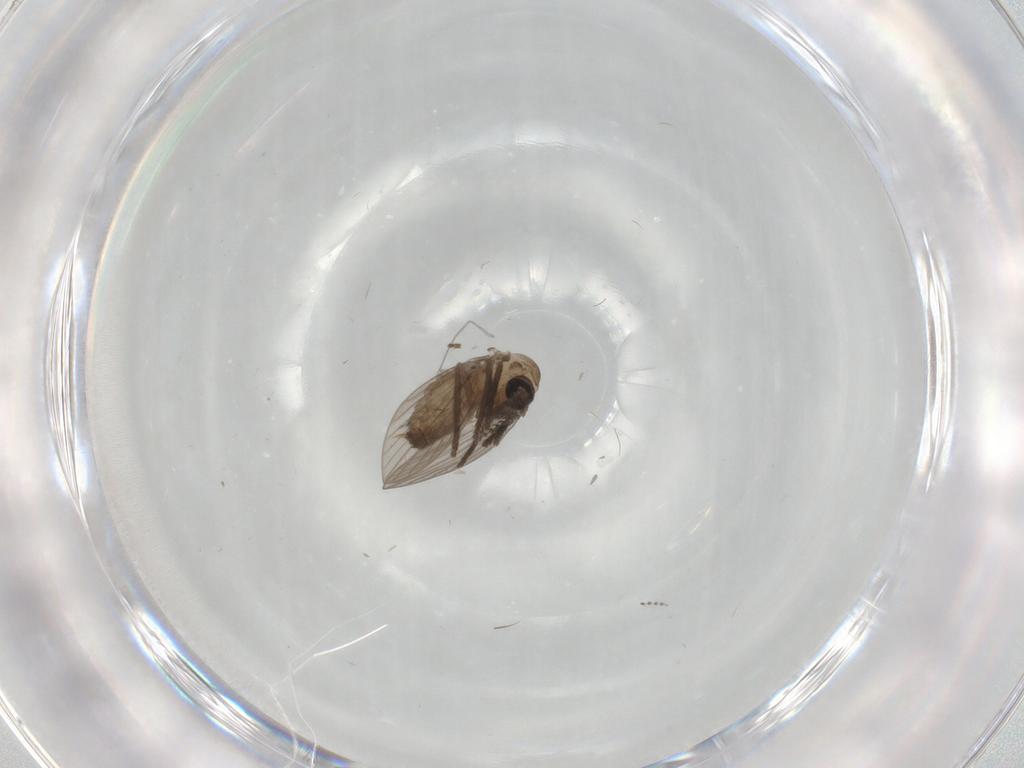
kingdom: Animalia
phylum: Arthropoda
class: Insecta
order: Diptera
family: Psychodidae
